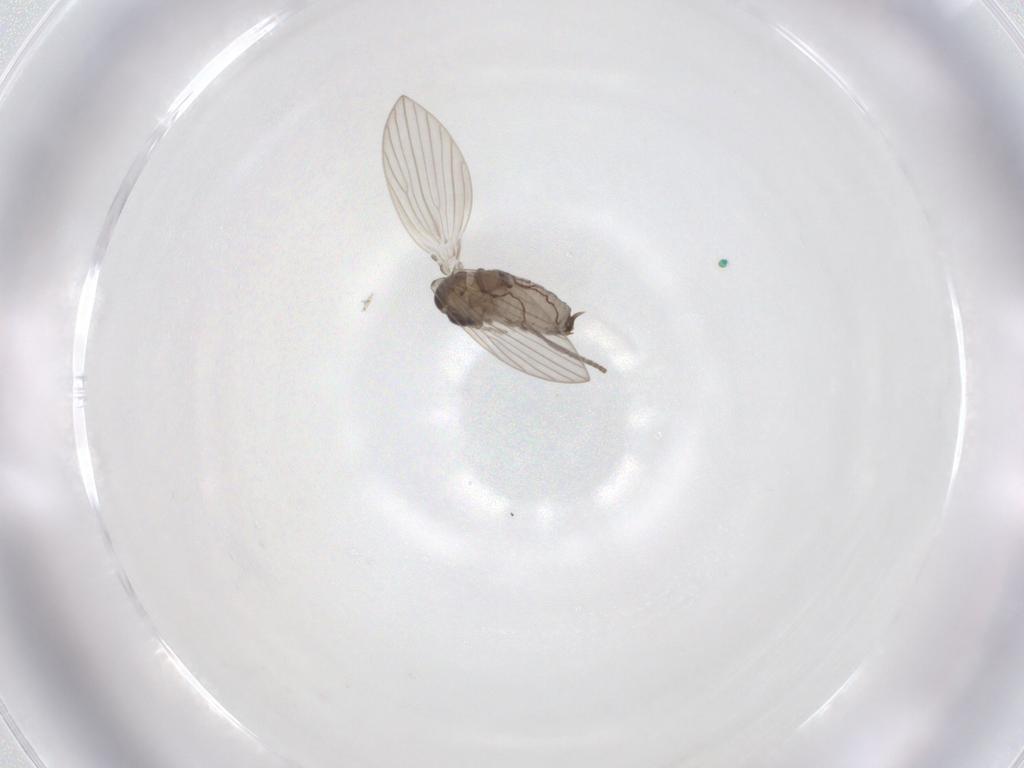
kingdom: Animalia
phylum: Arthropoda
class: Insecta
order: Diptera
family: Psychodidae
